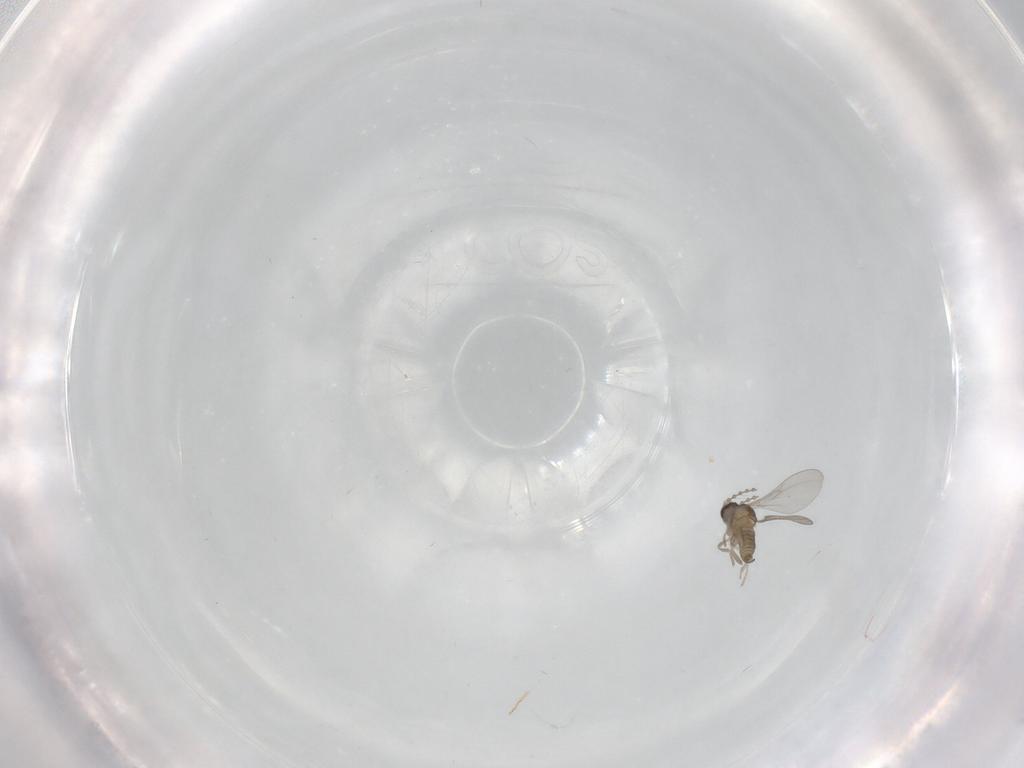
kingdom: Animalia
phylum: Arthropoda
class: Insecta
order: Diptera
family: Cecidomyiidae
